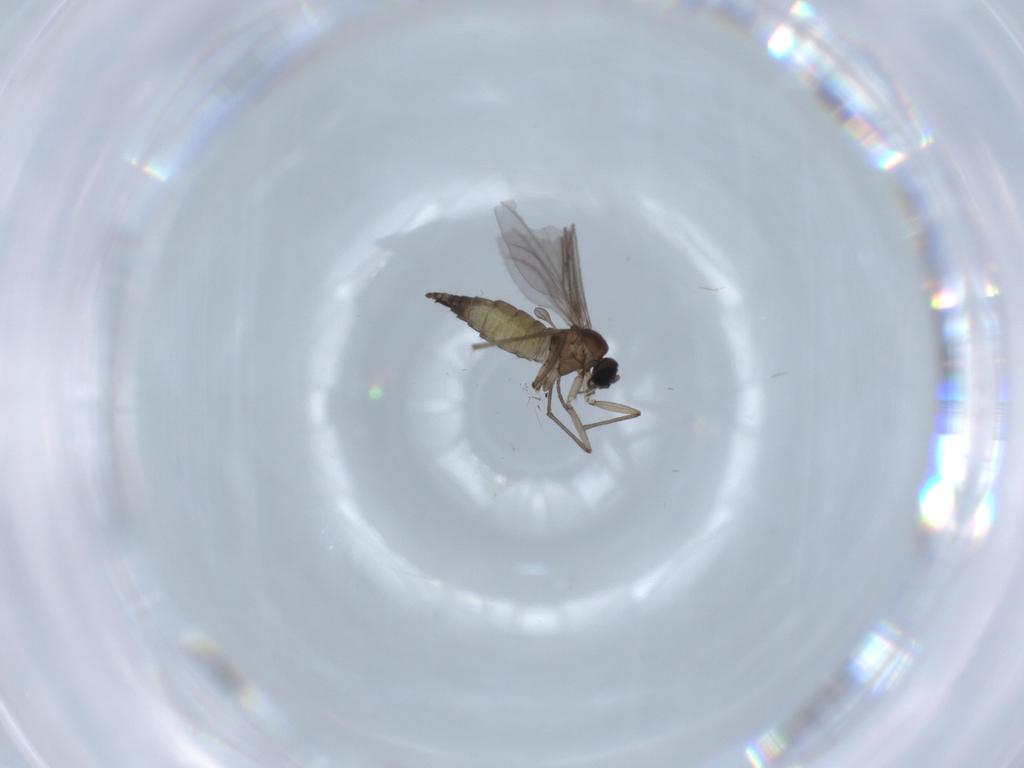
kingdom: Animalia
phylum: Arthropoda
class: Insecta
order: Diptera
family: Sciaridae
